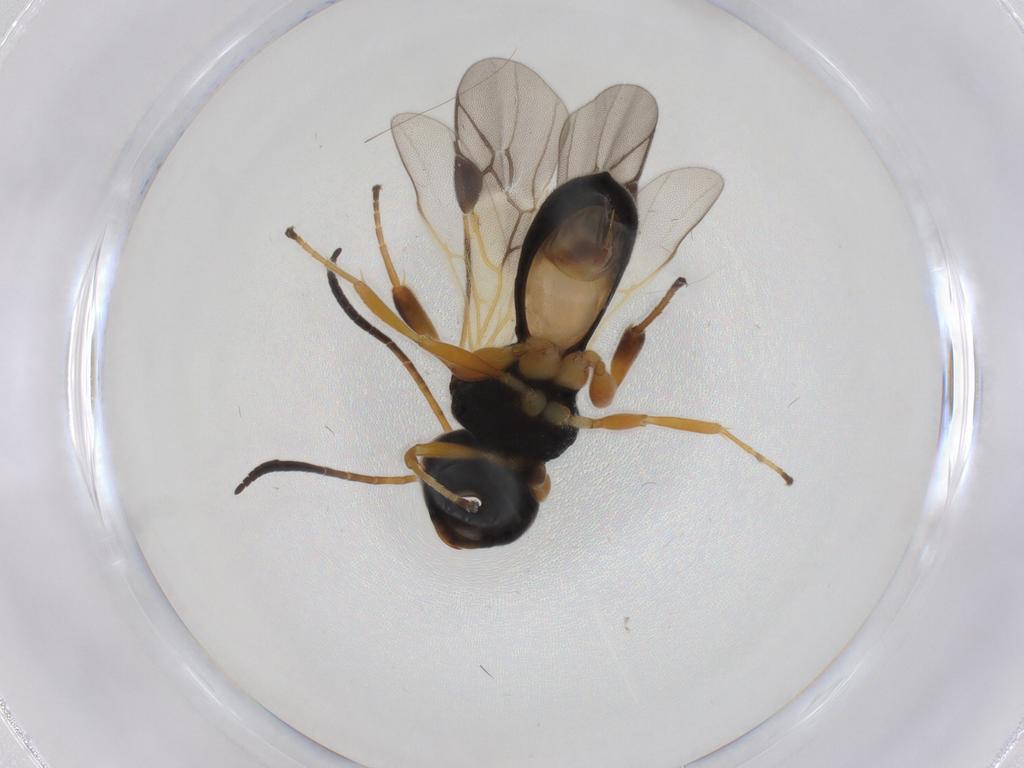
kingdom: Animalia
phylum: Arthropoda
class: Insecta
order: Hymenoptera
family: Braconidae
